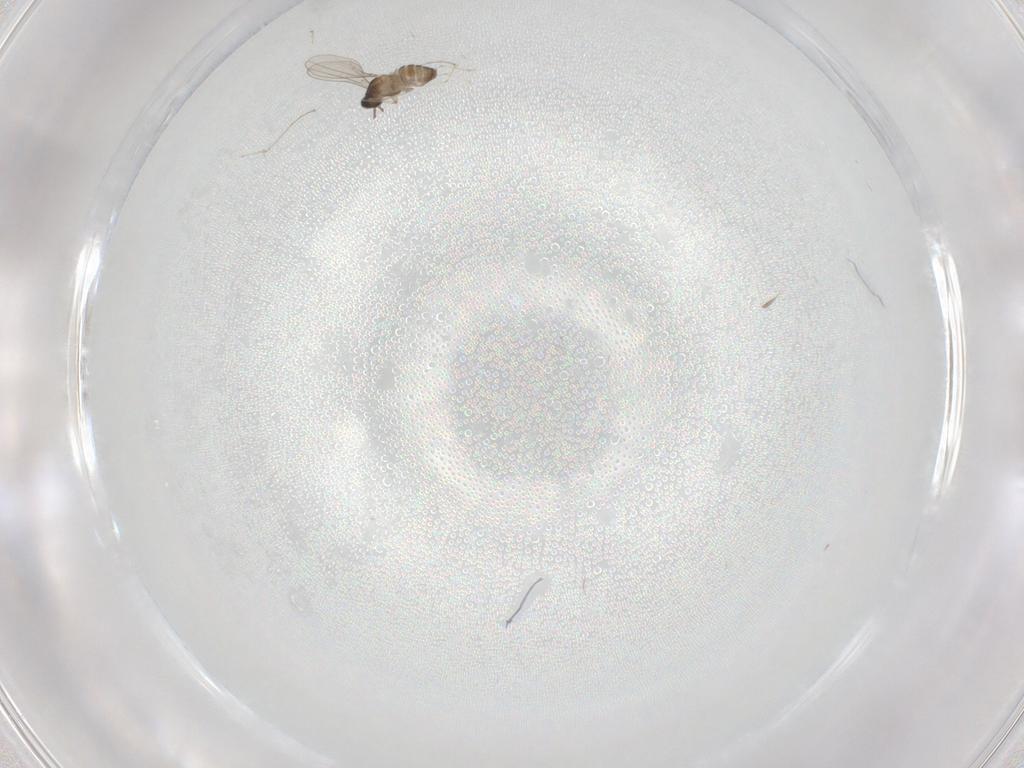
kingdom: Animalia
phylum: Arthropoda
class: Insecta
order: Diptera
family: Cecidomyiidae
